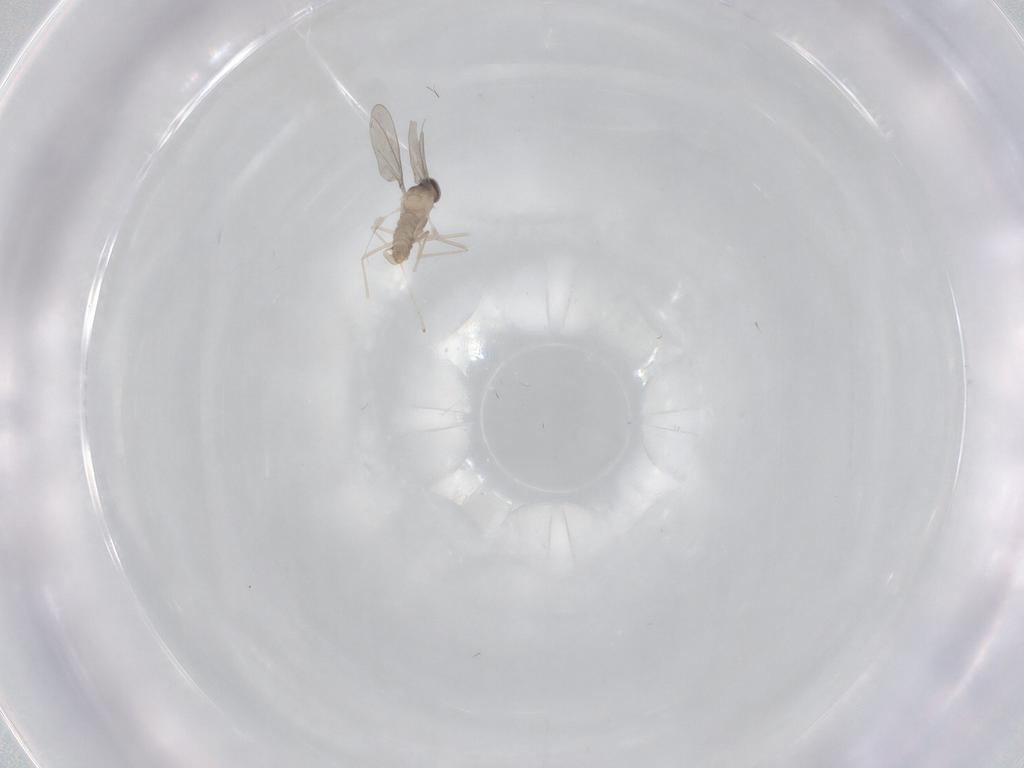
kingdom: Animalia
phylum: Arthropoda
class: Insecta
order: Diptera
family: Cecidomyiidae
